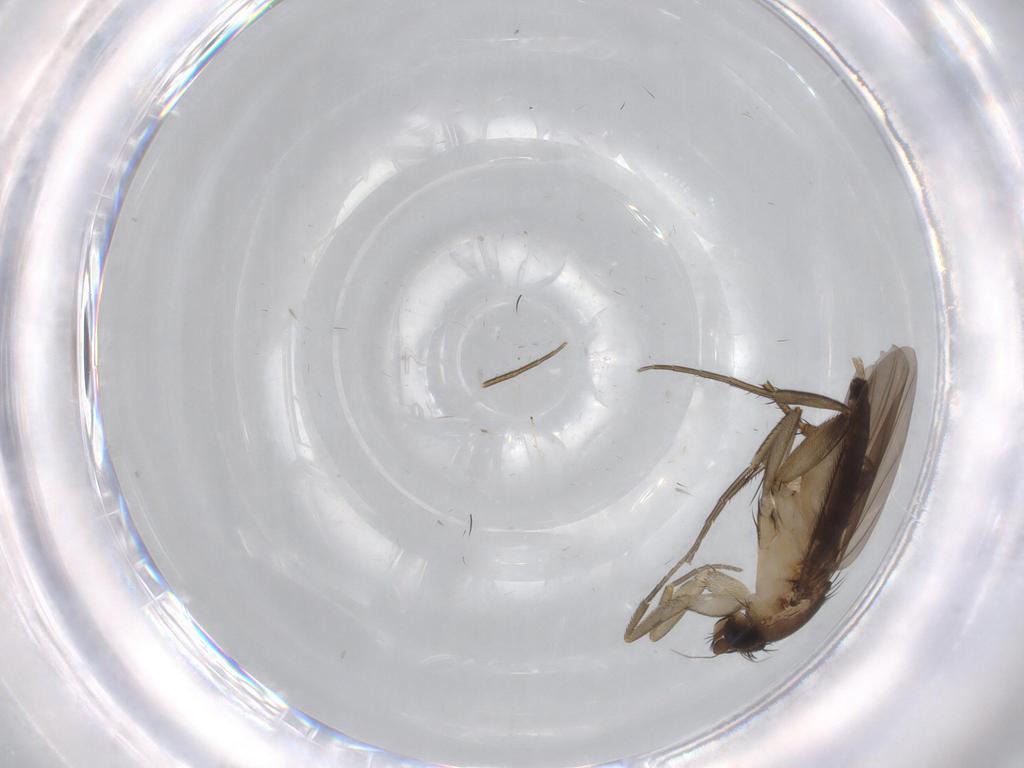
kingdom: Animalia
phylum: Arthropoda
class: Insecta
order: Diptera
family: Phoridae
